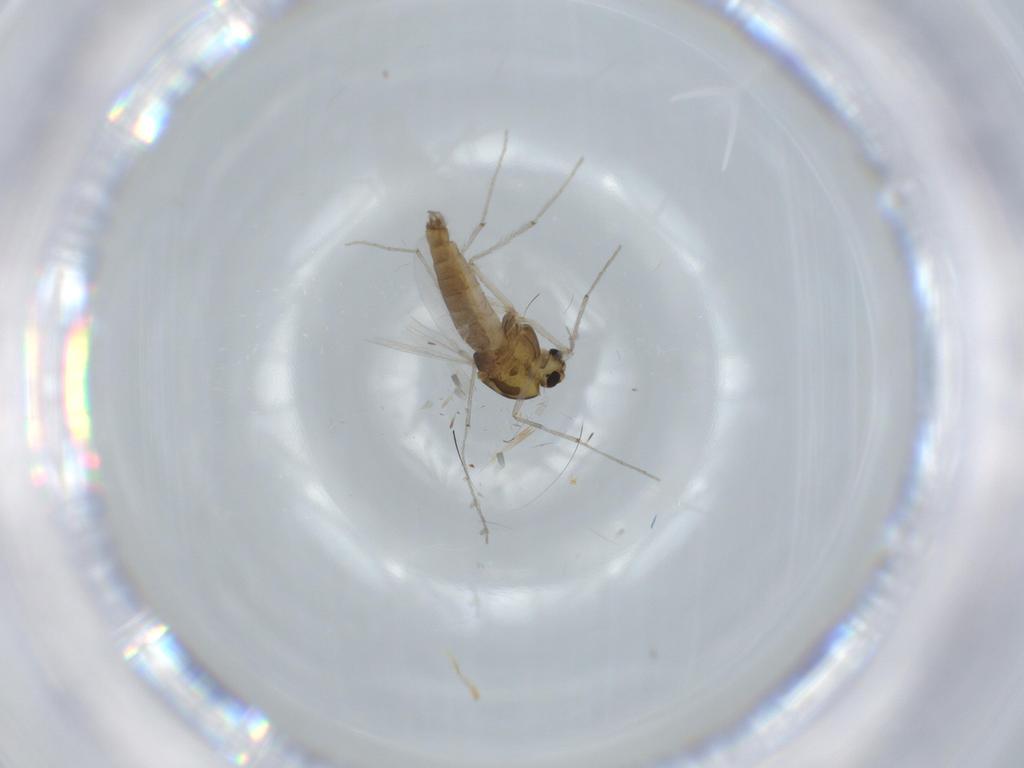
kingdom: Animalia
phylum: Arthropoda
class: Insecta
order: Diptera
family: Chironomidae
